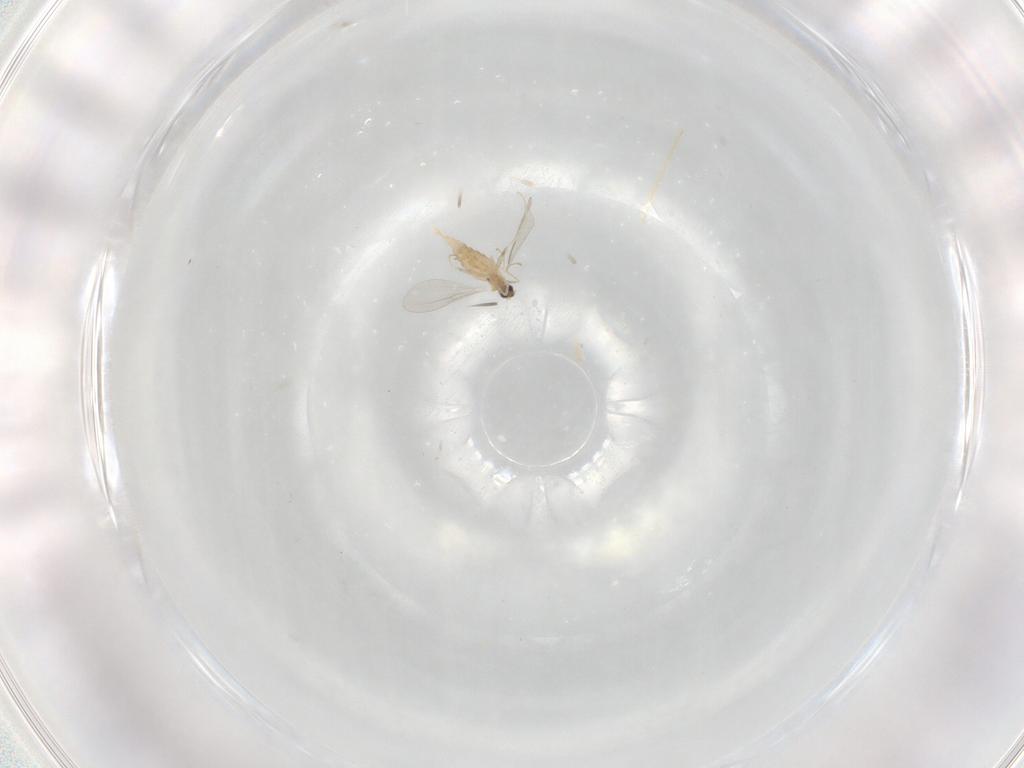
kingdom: Animalia
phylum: Arthropoda
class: Insecta
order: Diptera
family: Cecidomyiidae
